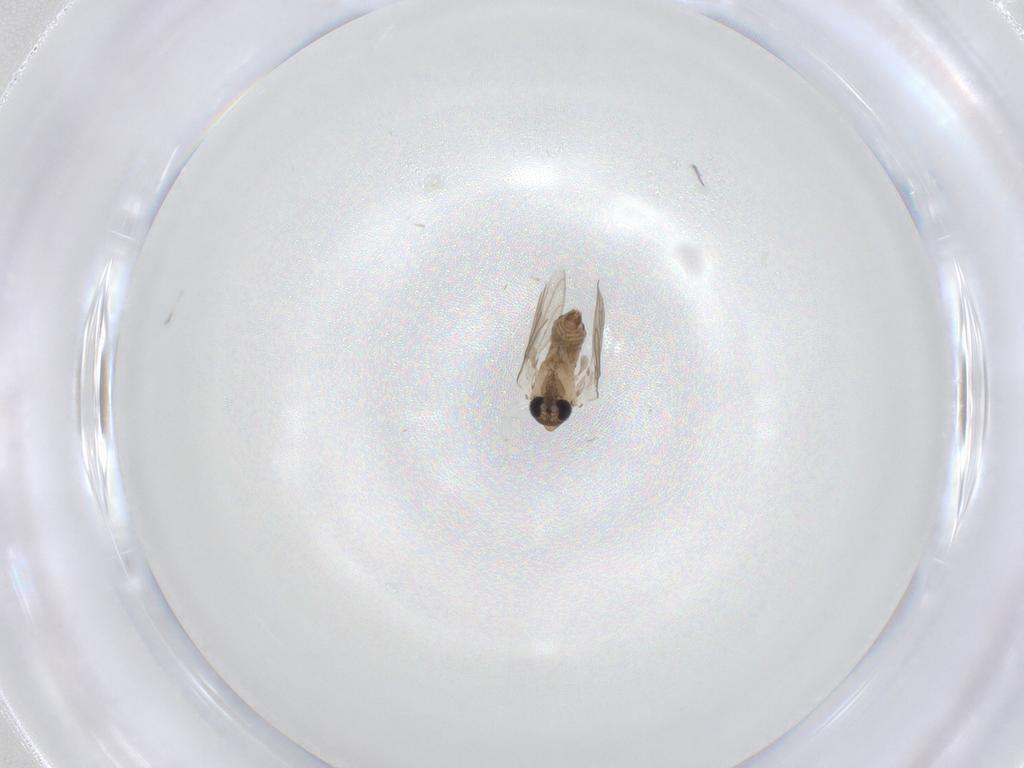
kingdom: Animalia
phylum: Arthropoda
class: Insecta
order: Diptera
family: Psychodidae
